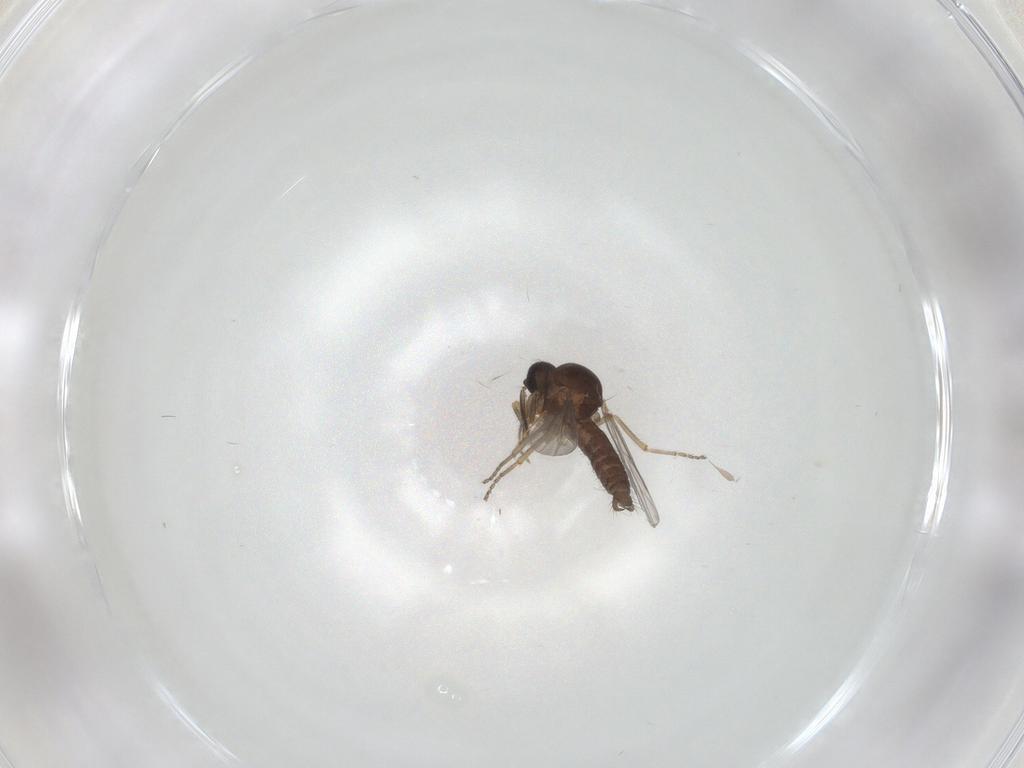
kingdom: Animalia
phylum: Arthropoda
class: Insecta
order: Diptera
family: Ceratopogonidae
